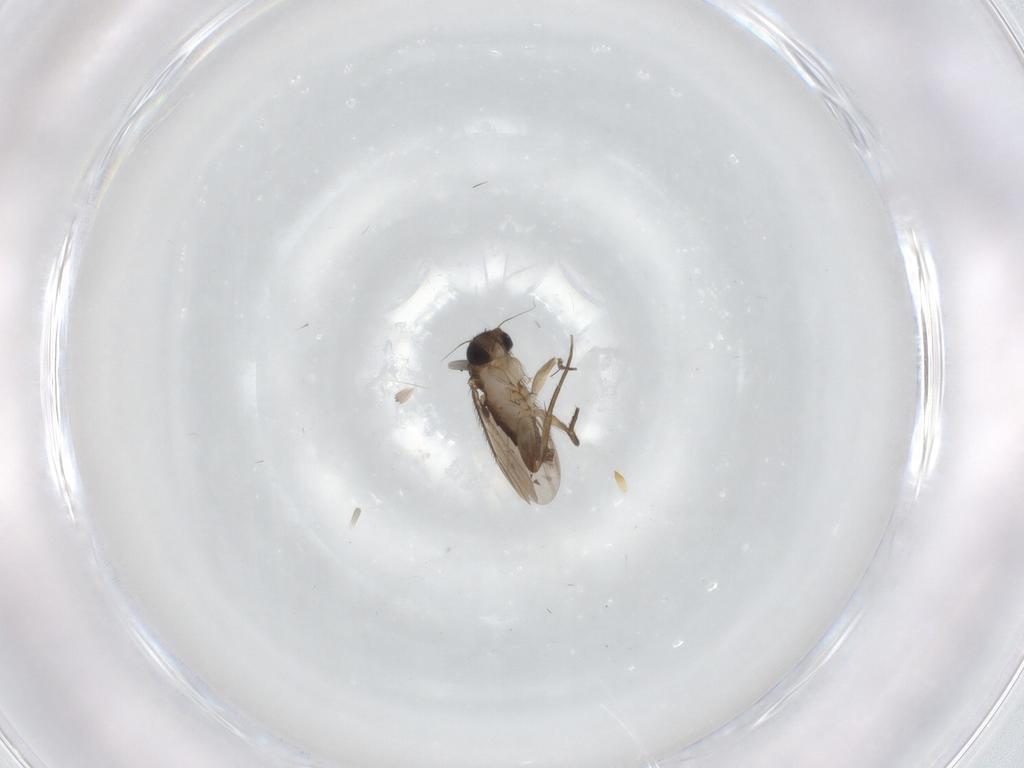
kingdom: Animalia
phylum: Arthropoda
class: Insecta
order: Diptera
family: Phoridae
